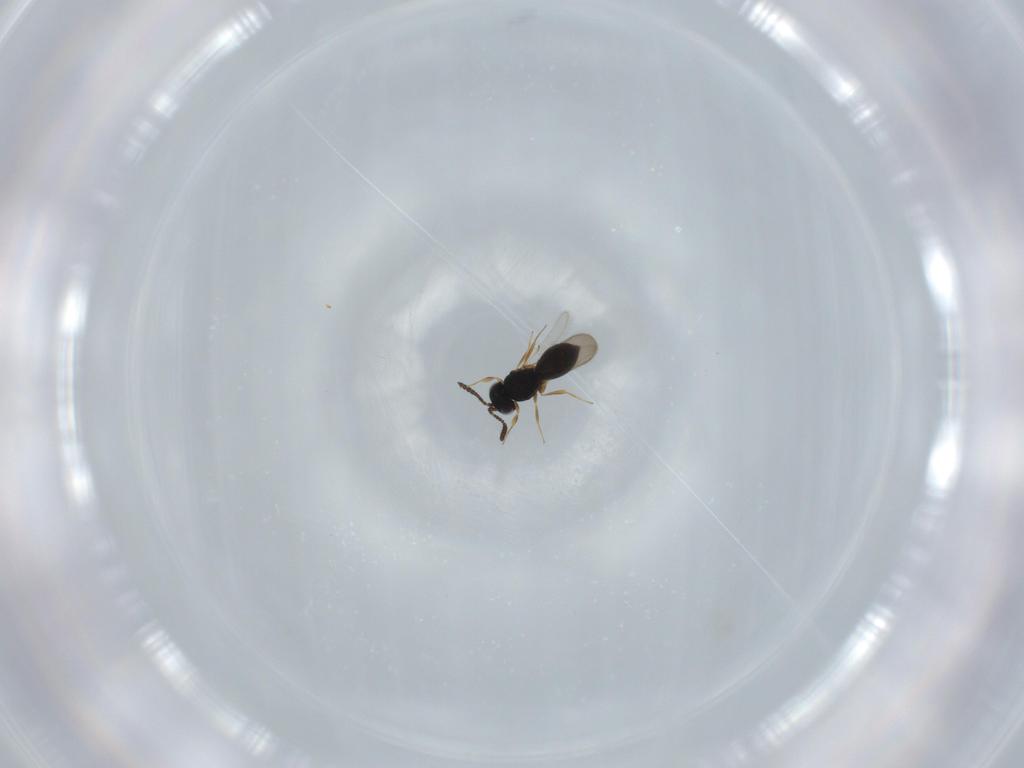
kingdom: Animalia
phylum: Arthropoda
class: Insecta
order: Hymenoptera
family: Scelionidae
